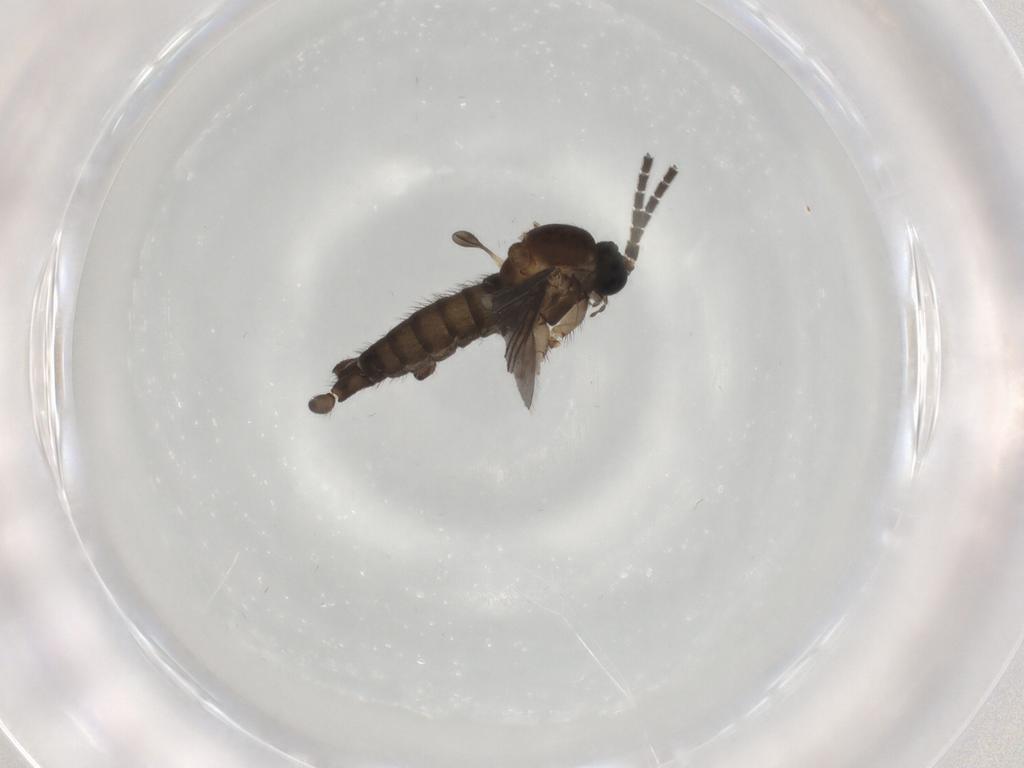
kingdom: Animalia
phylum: Arthropoda
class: Insecta
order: Diptera
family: Sciaridae
